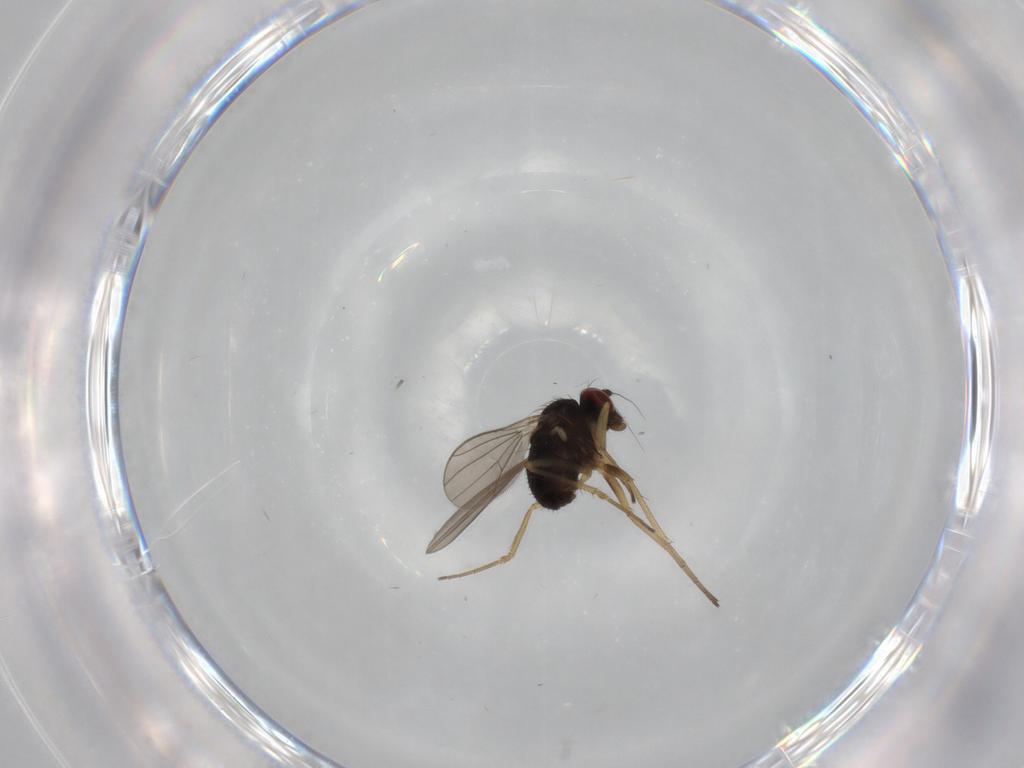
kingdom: Animalia
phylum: Arthropoda
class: Insecta
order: Diptera
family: Dolichopodidae
